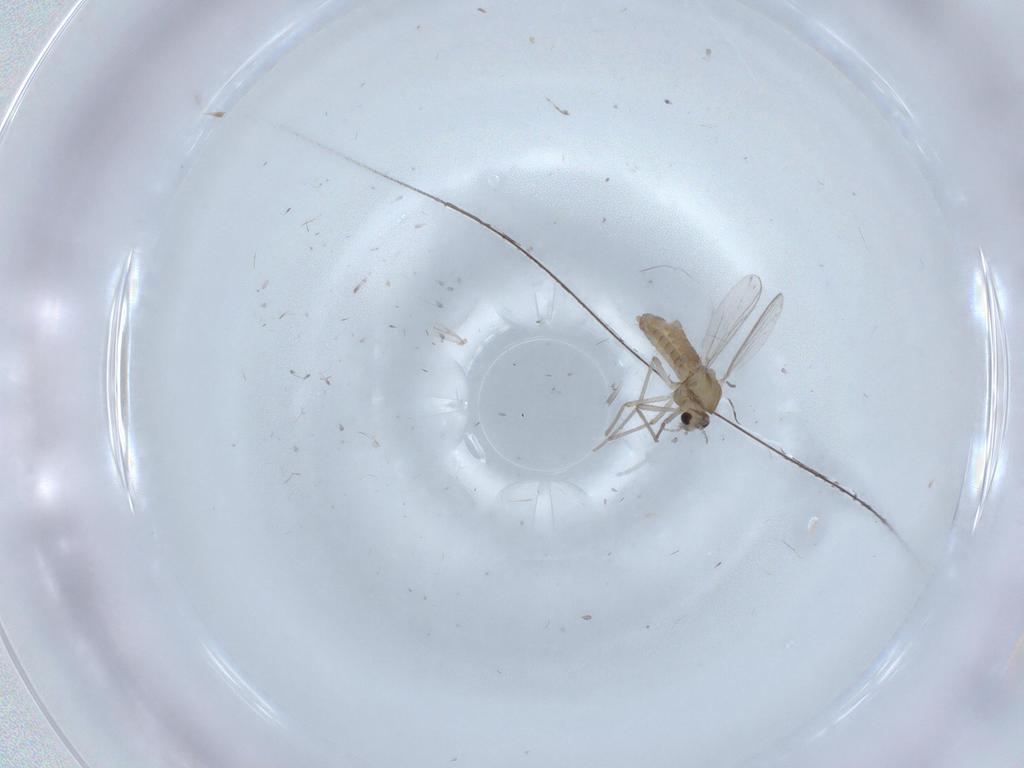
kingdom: Animalia
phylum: Arthropoda
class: Insecta
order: Diptera
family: Chironomidae
